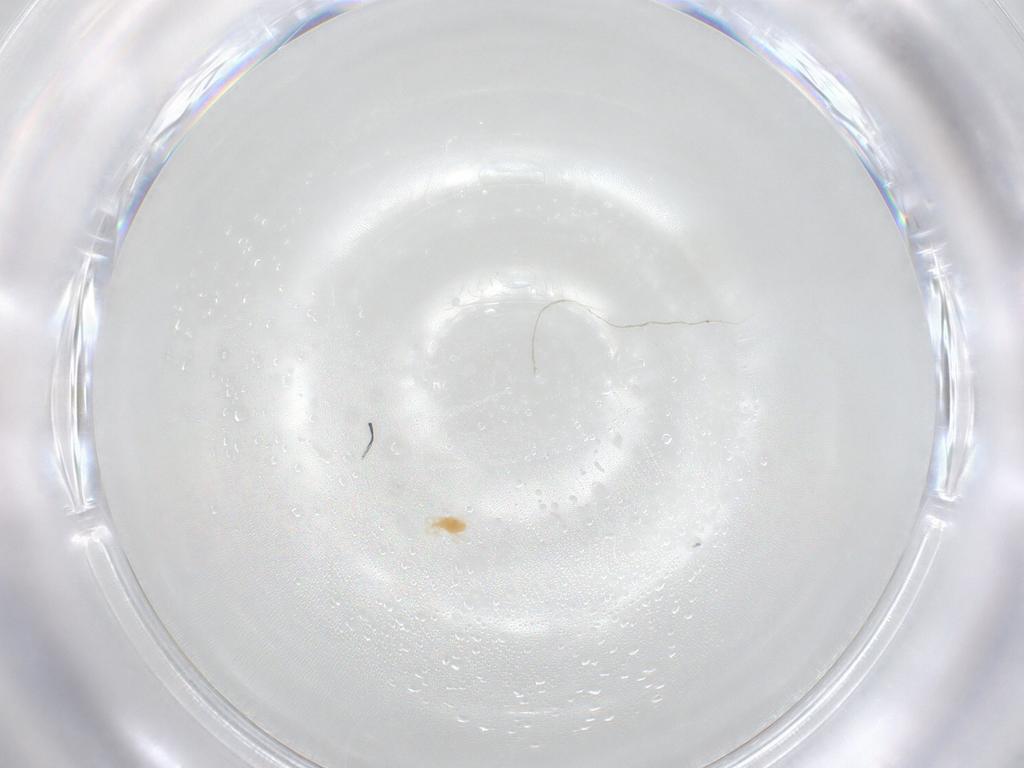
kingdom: Animalia
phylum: Arthropoda
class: Arachnida
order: Trombidiformes
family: Tetranychidae
